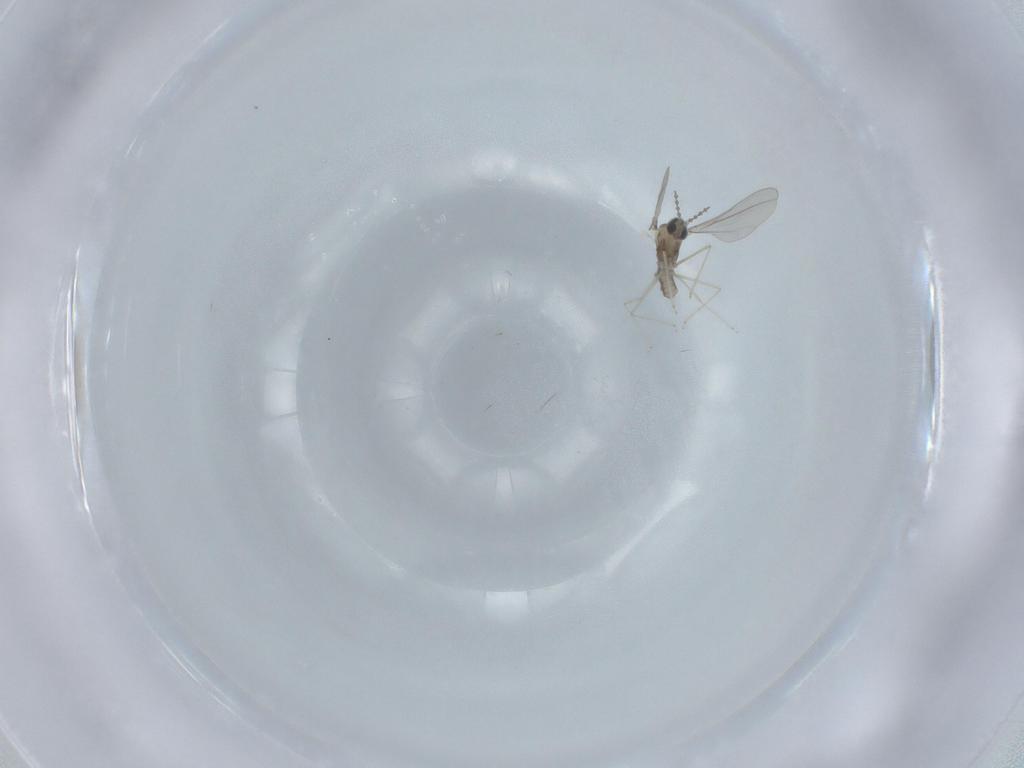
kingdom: Animalia
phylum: Arthropoda
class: Insecta
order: Diptera
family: Cecidomyiidae
